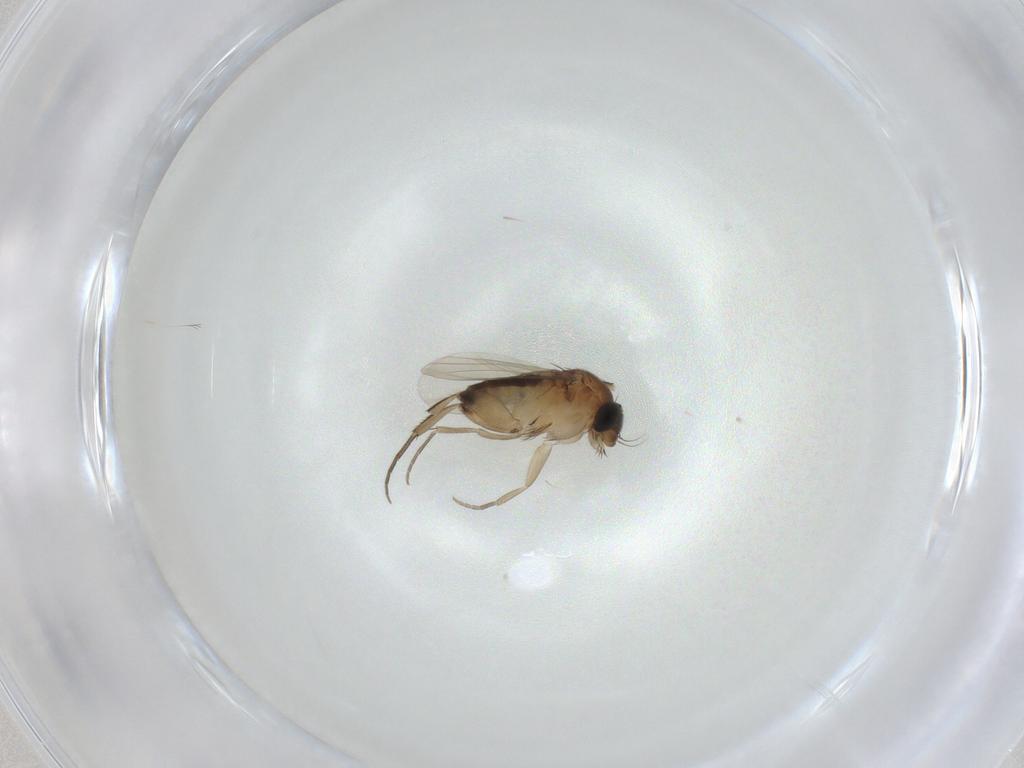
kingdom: Animalia
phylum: Arthropoda
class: Insecta
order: Diptera
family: Phoridae
